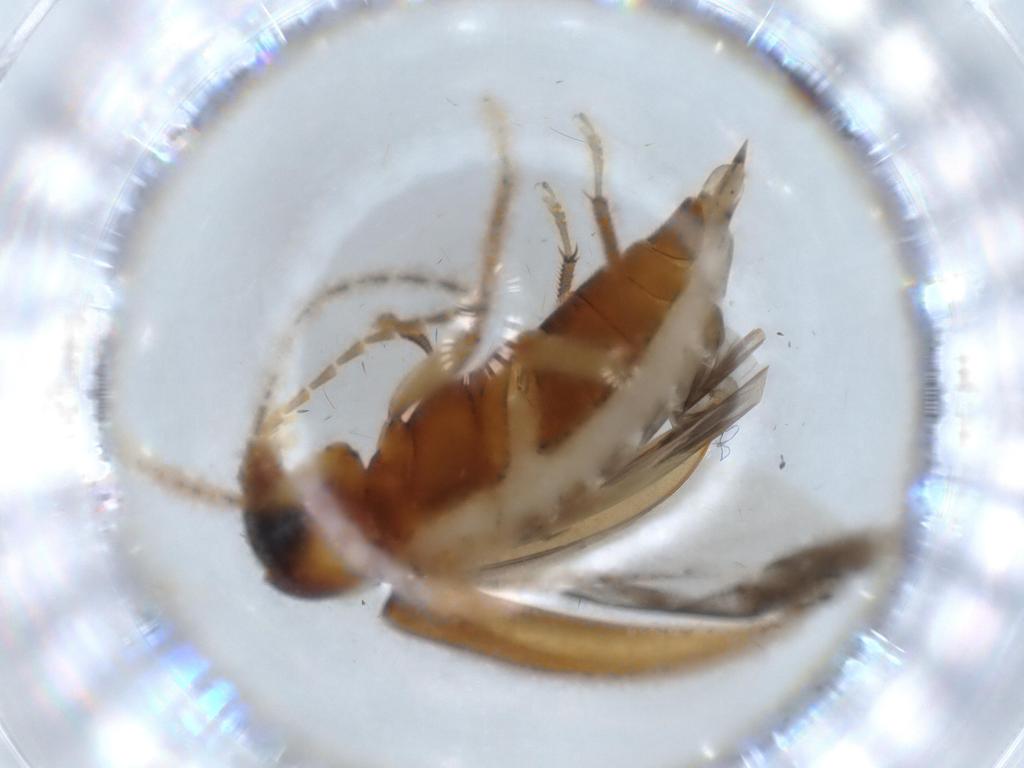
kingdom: Animalia
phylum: Arthropoda
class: Insecta
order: Coleoptera
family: Ptilodactylidae
